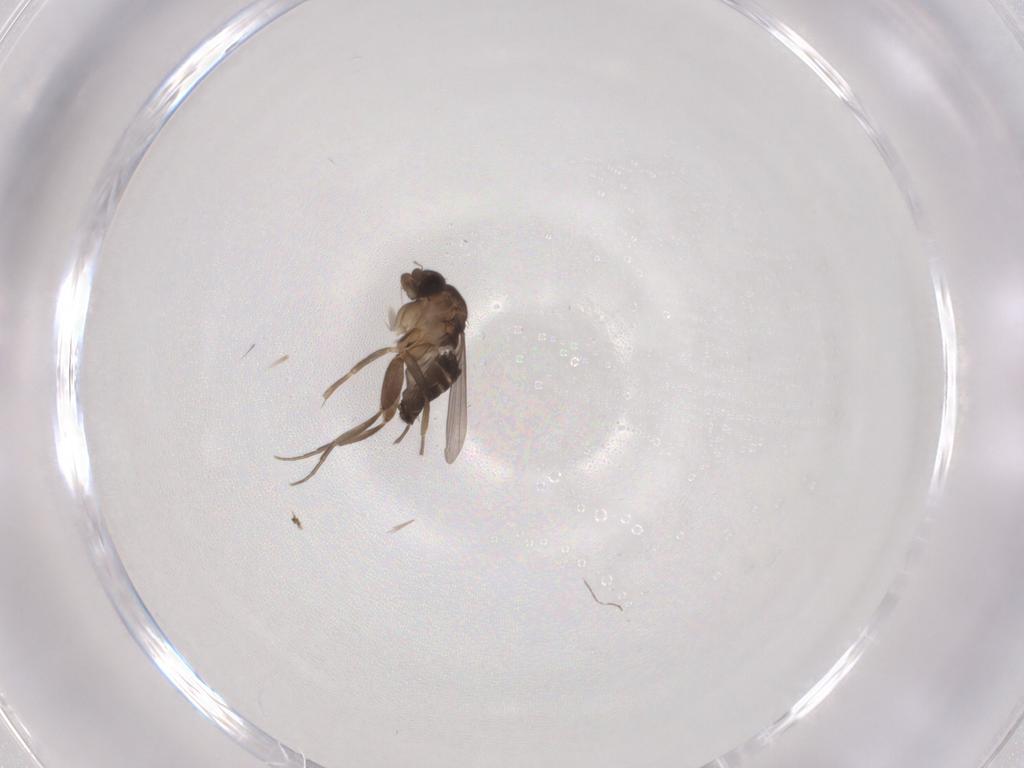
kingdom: Animalia
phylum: Arthropoda
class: Insecta
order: Diptera
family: Phoridae
